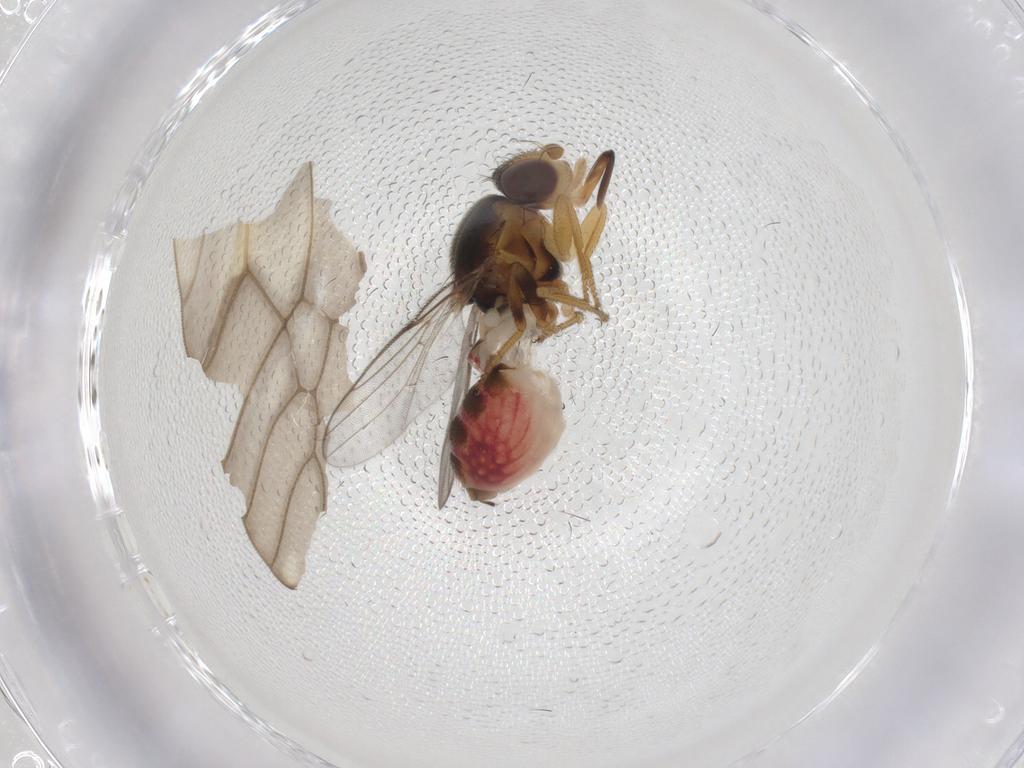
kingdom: Animalia
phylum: Arthropoda
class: Insecta
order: Diptera
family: Chloropidae
